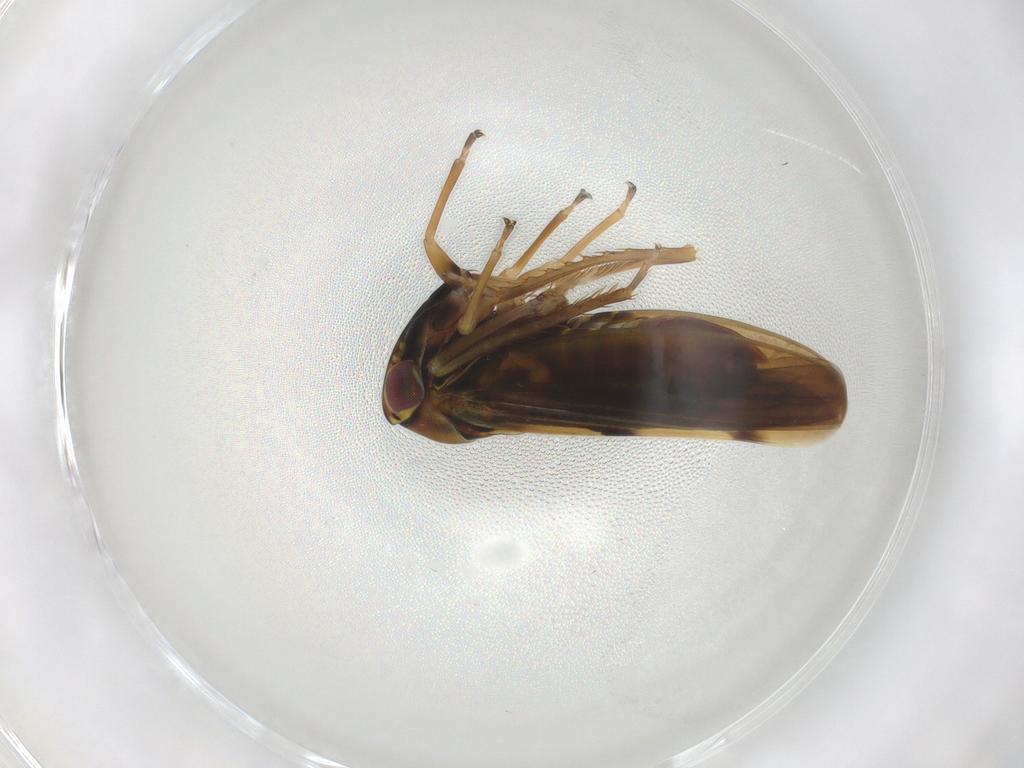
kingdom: Animalia
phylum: Arthropoda
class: Insecta
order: Hemiptera
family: Cicadellidae
